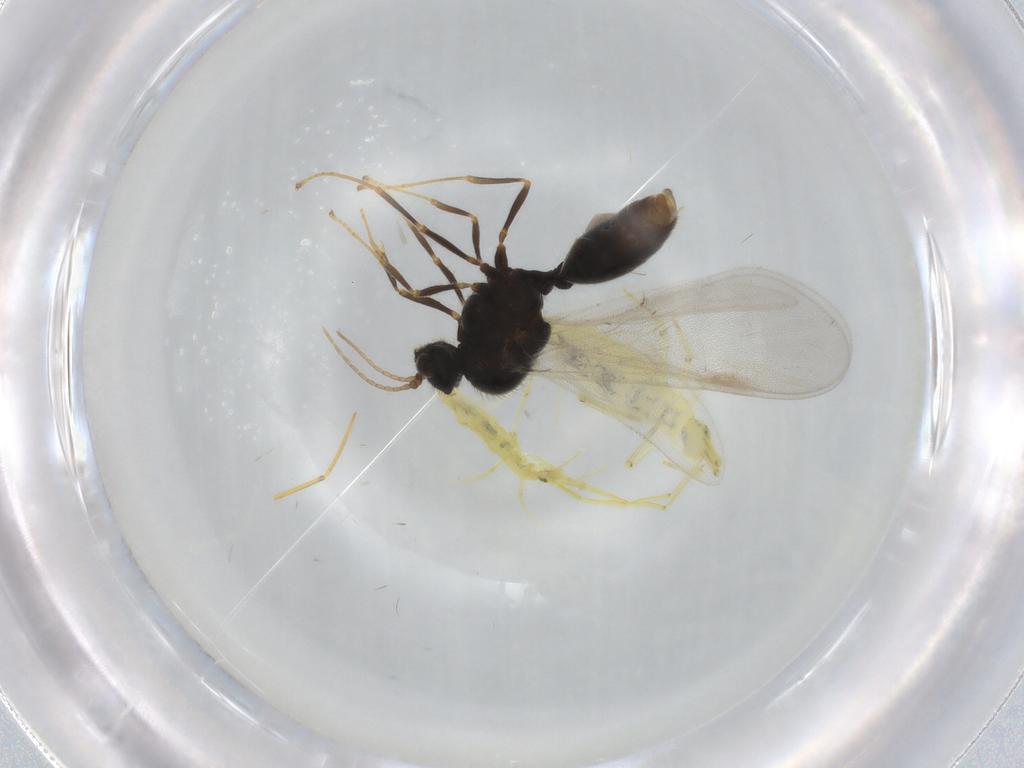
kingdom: Animalia
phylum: Arthropoda
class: Insecta
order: Hymenoptera
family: Formicidae
